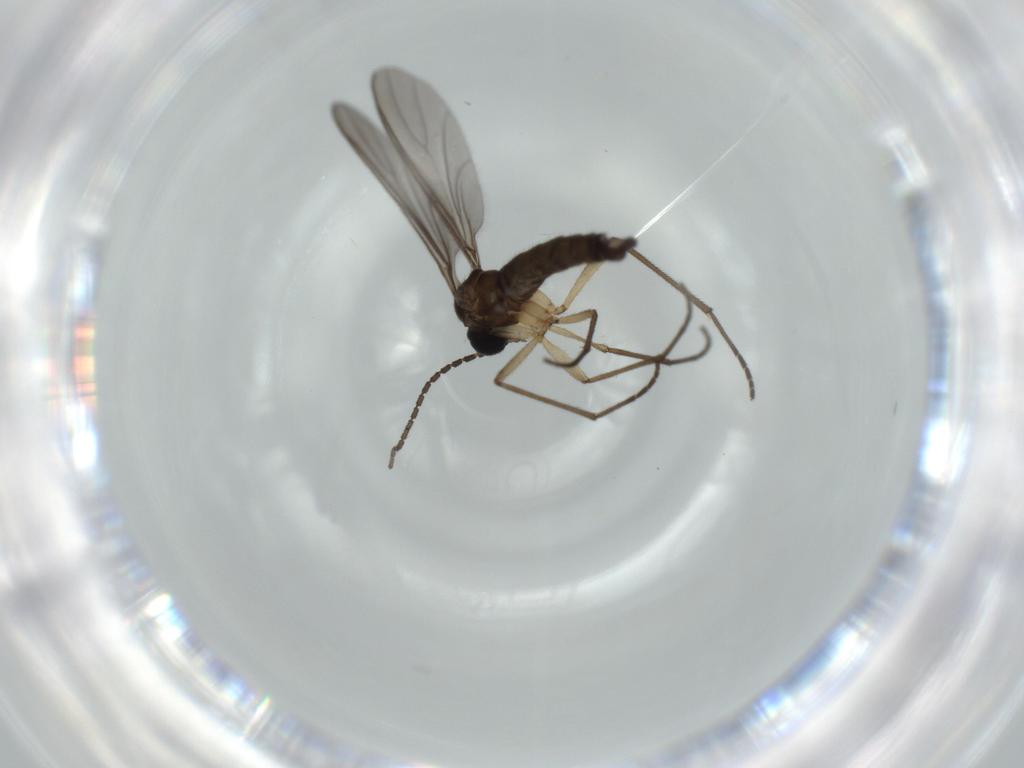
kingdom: Animalia
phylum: Arthropoda
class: Insecta
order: Diptera
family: Sciaridae
